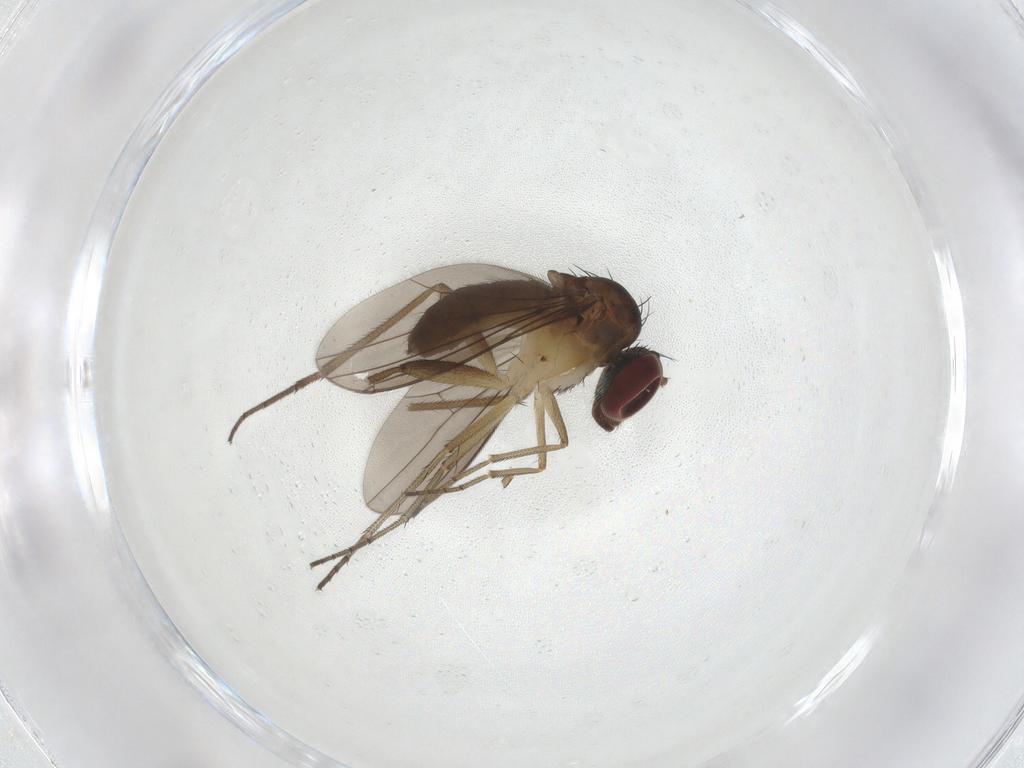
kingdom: Animalia
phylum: Arthropoda
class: Insecta
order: Diptera
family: Dolichopodidae
